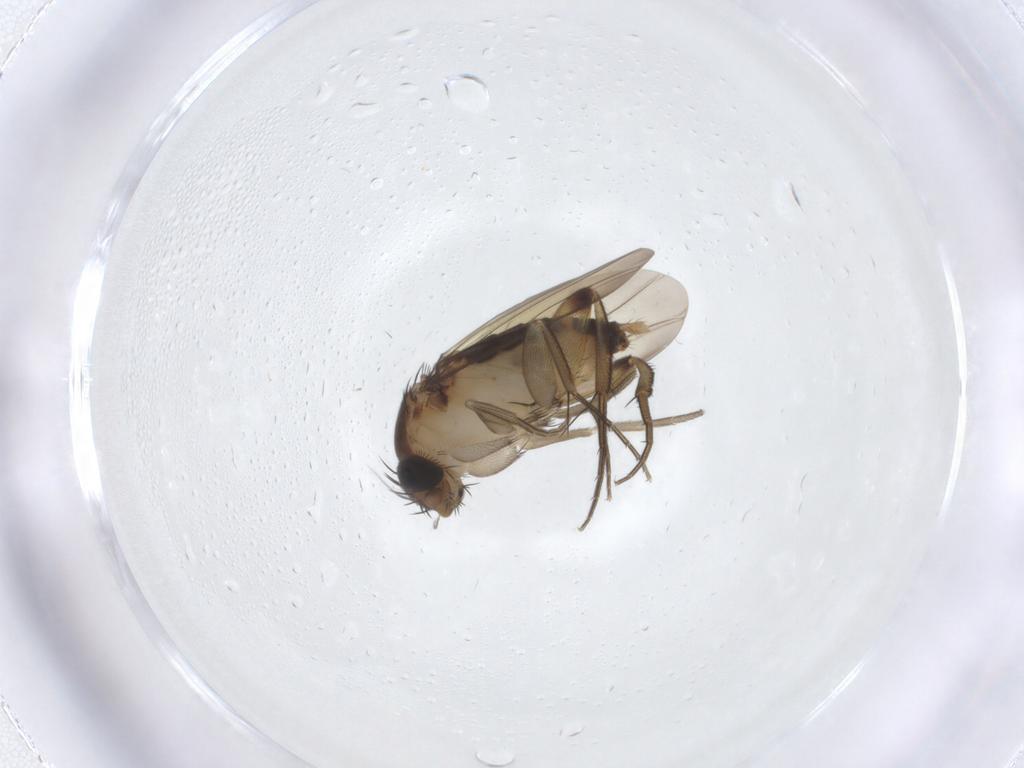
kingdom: Animalia
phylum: Arthropoda
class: Insecta
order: Diptera
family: Phoridae
